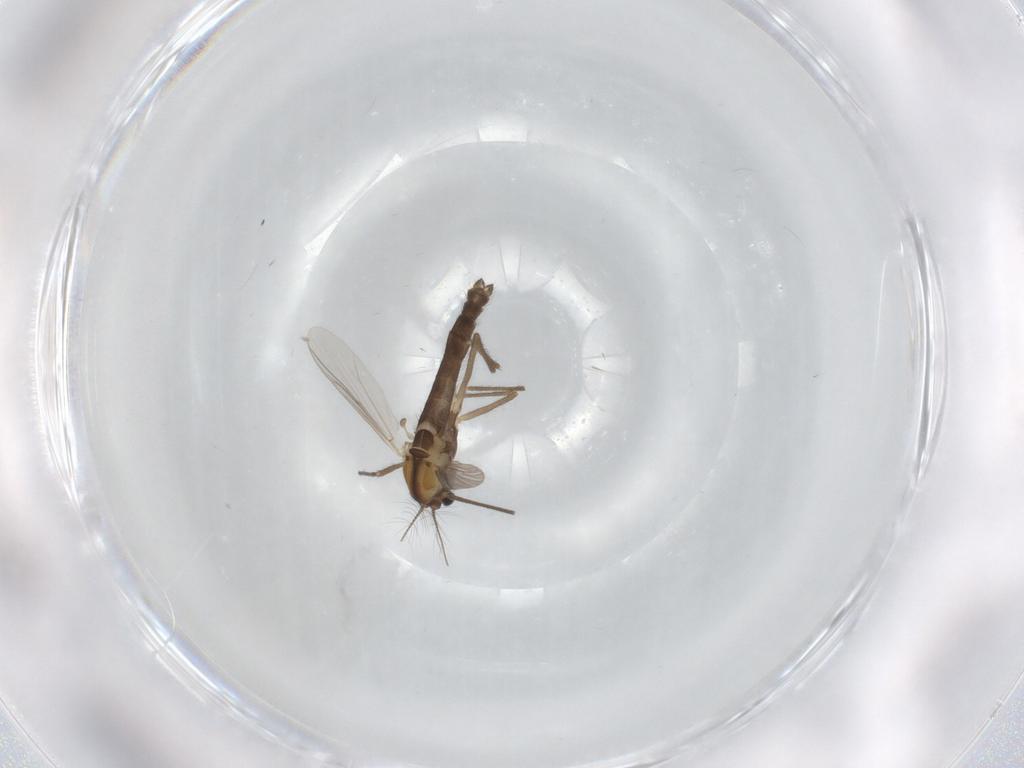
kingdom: Animalia
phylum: Arthropoda
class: Insecta
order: Diptera
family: Chironomidae
